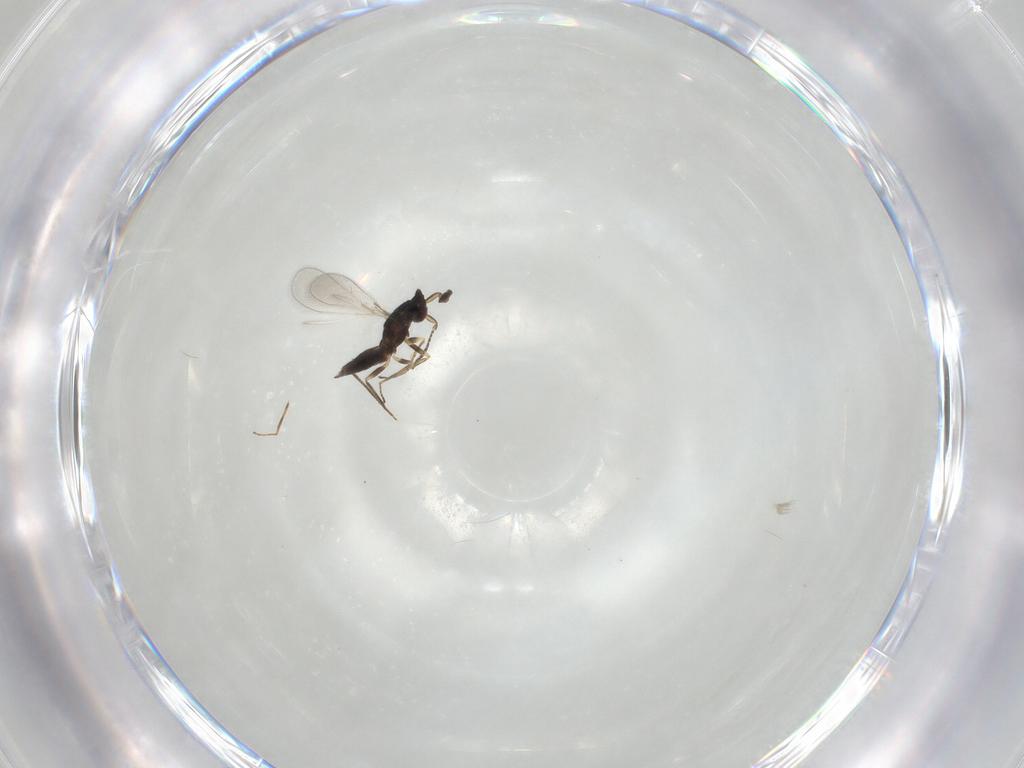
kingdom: Animalia
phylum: Arthropoda
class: Insecta
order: Hymenoptera
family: Mymaridae
